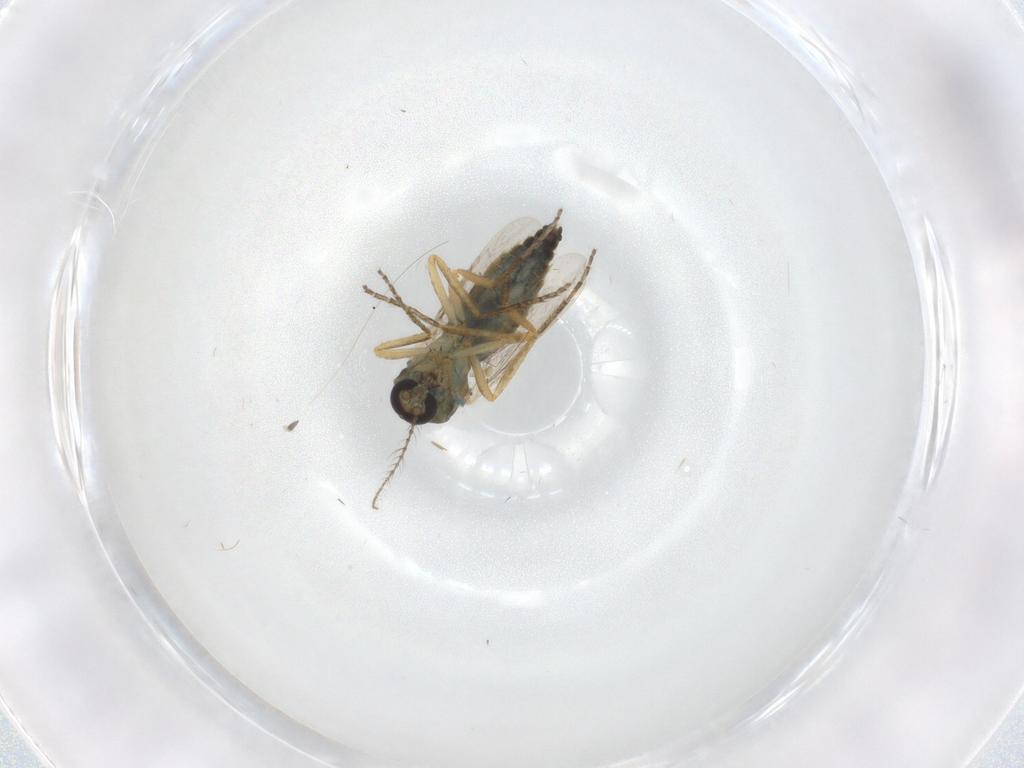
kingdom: Animalia
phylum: Arthropoda
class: Insecta
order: Diptera
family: Ceratopogonidae
